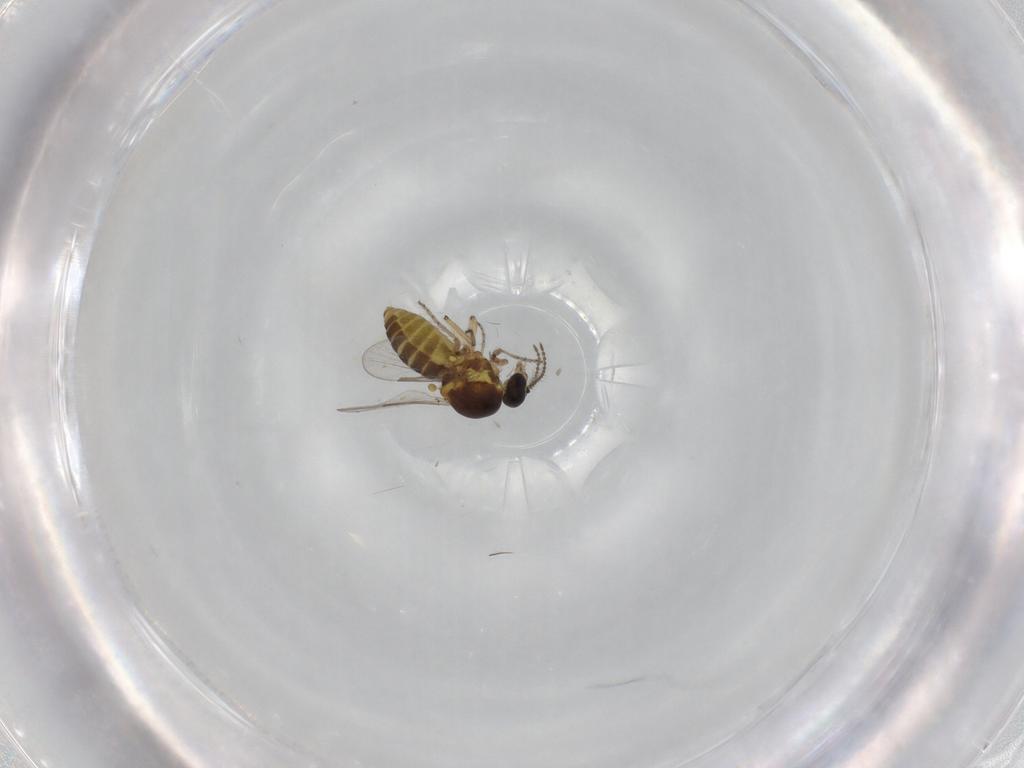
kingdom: Animalia
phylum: Arthropoda
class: Insecta
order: Diptera
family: Ceratopogonidae
